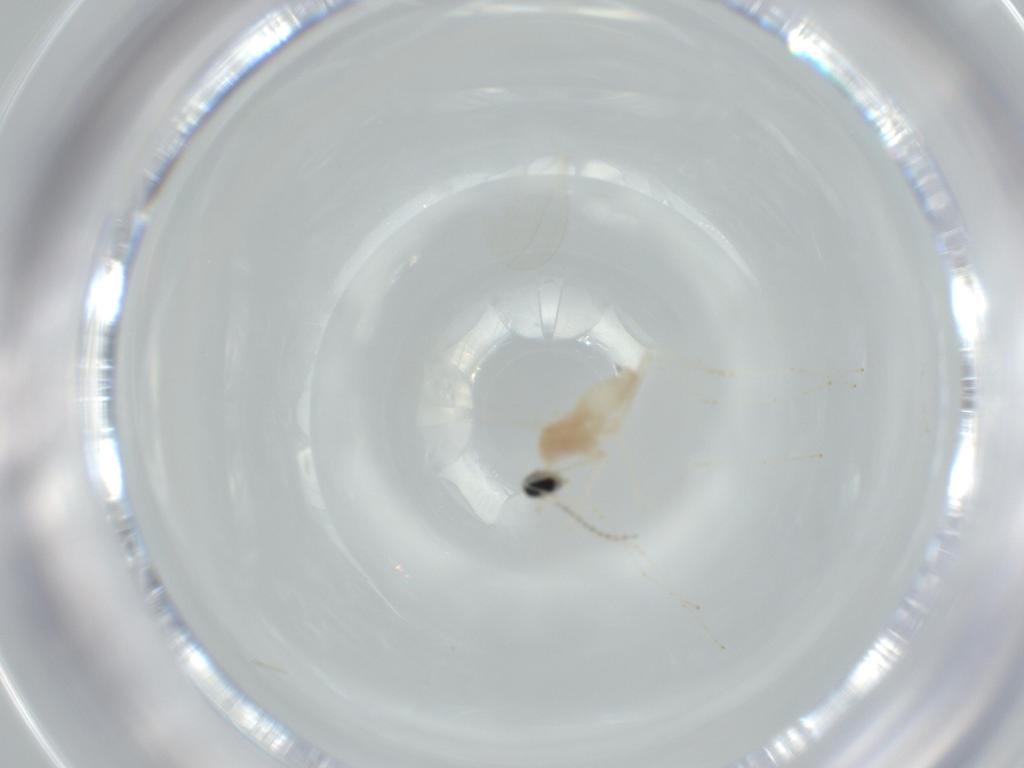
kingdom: Animalia
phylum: Arthropoda
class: Insecta
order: Diptera
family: Cecidomyiidae
